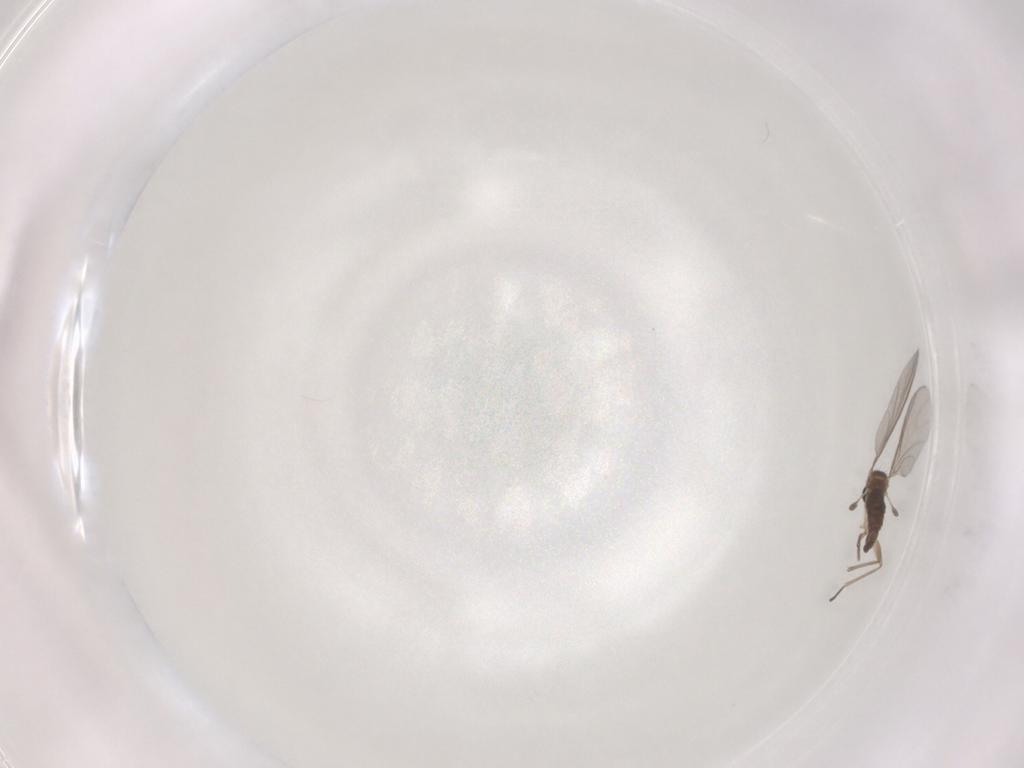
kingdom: Animalia
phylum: Arthropoda
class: Insecta
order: Diptera
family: Sciaridae
